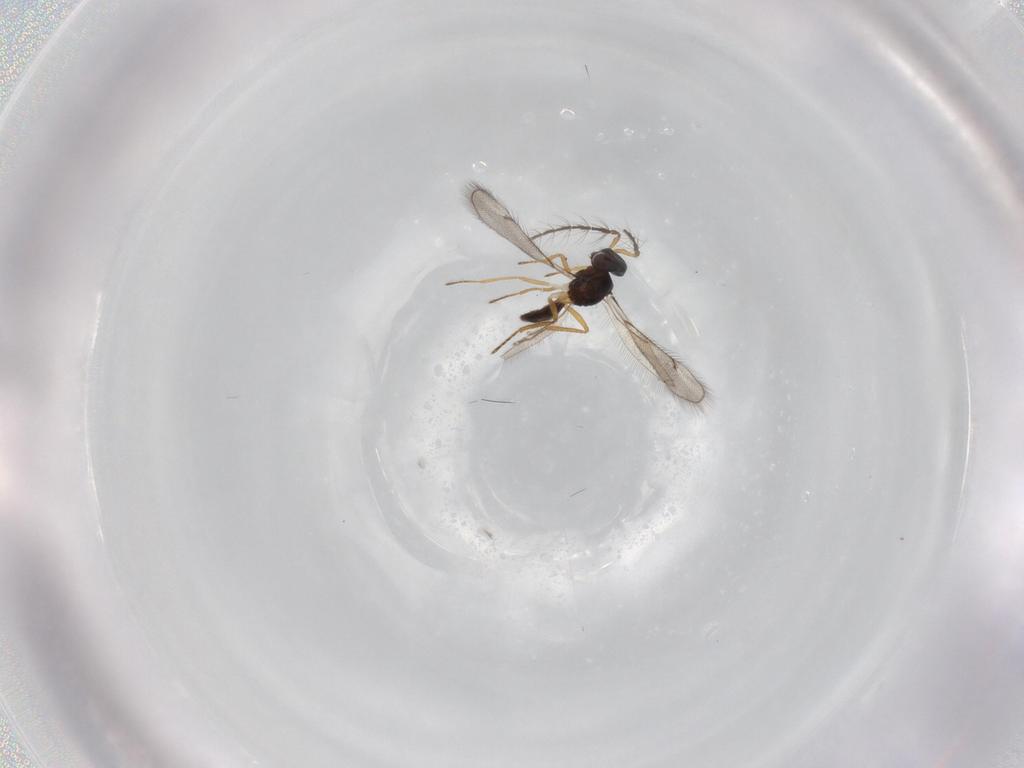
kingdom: Animalia
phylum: Arthropoda
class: Insecta
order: Hymenoptera
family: Eulophidae
